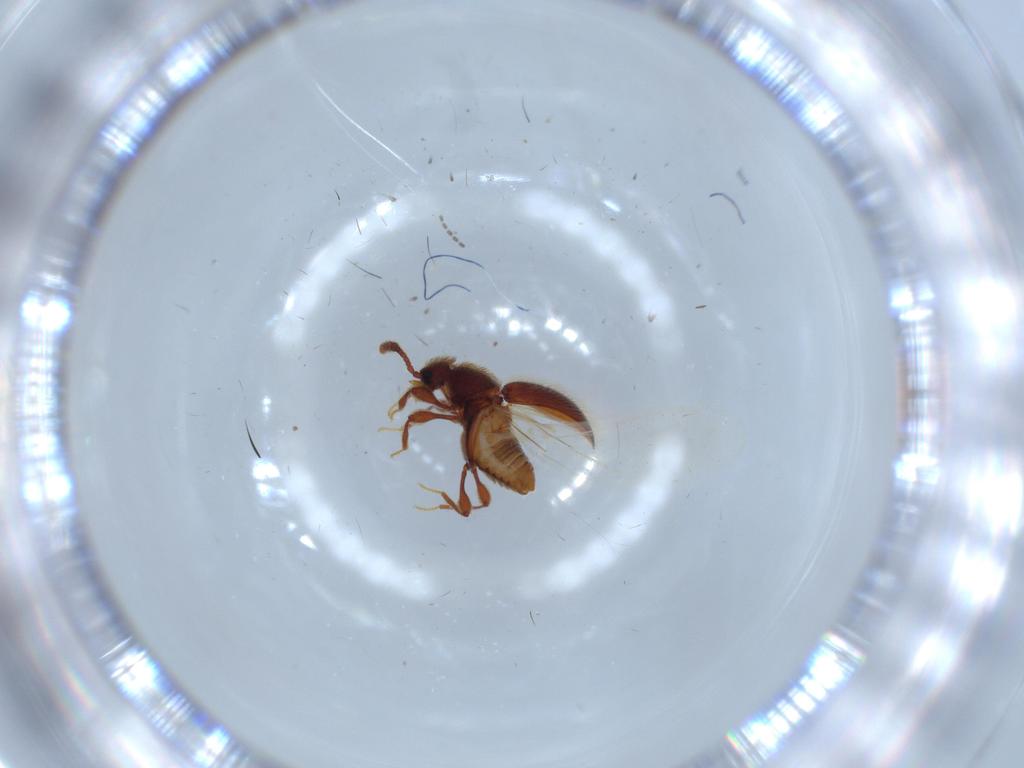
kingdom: Animalia
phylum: Arthropoda
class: Insecta
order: Coleoptera
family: Staphylinidae
